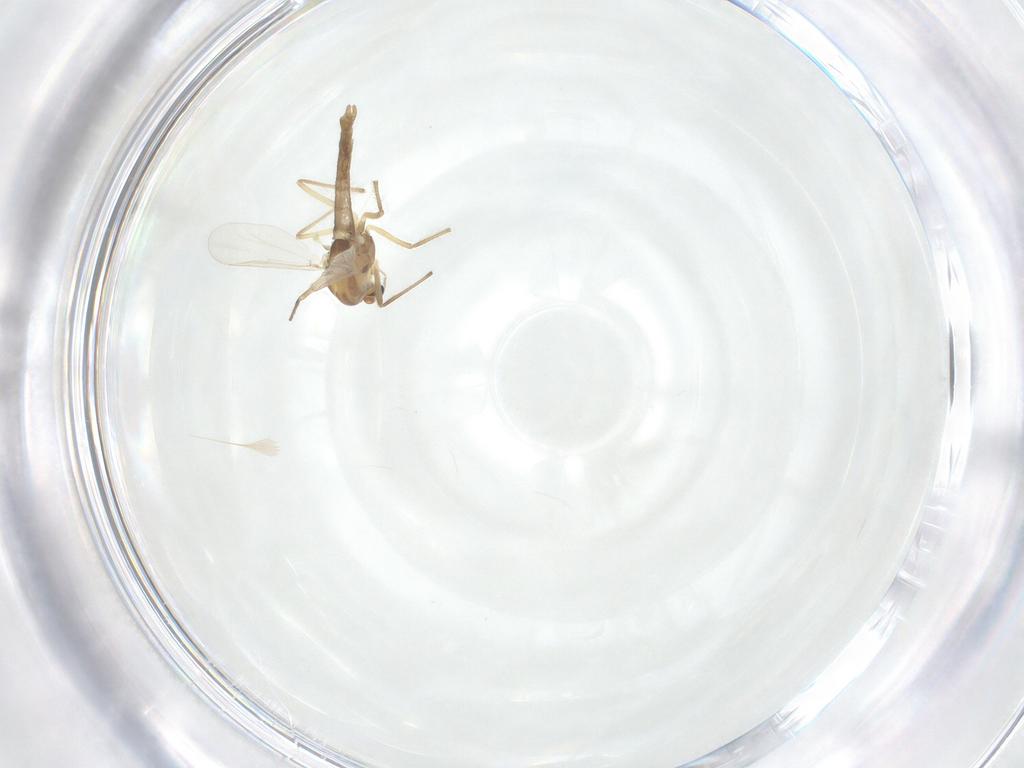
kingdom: Animalia
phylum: Arthropoda
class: Insecta
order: Diptera
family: Chironomidae
